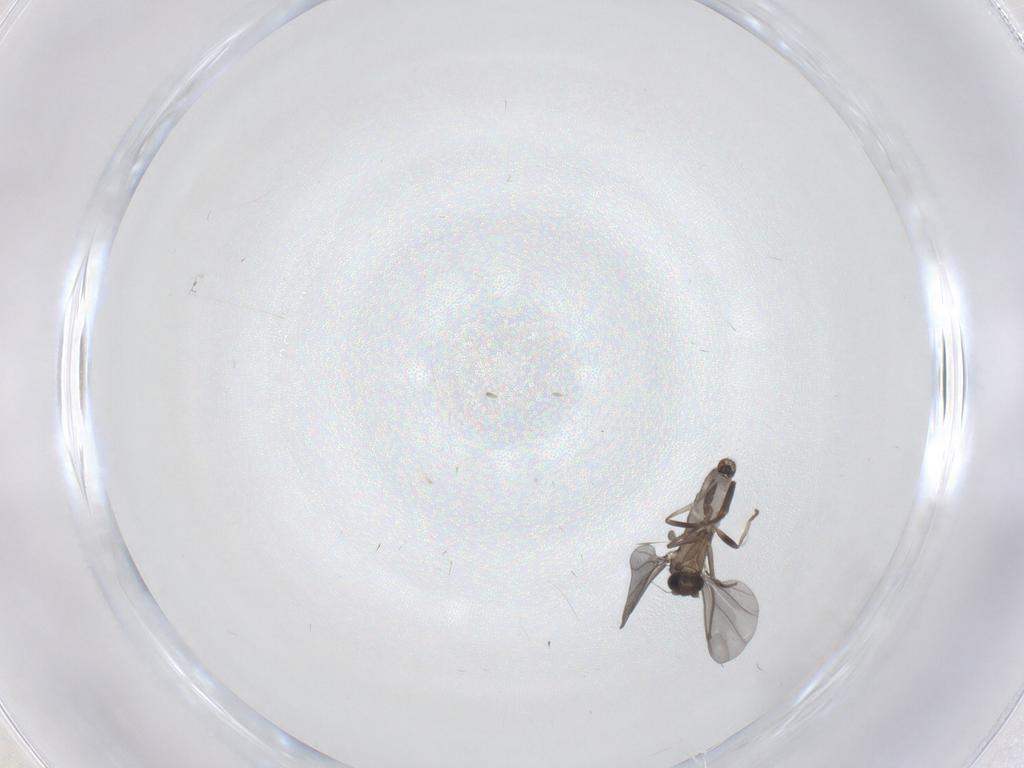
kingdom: Animalia
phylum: Arthropoda
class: Insecta
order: Diptera
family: Phoridae
